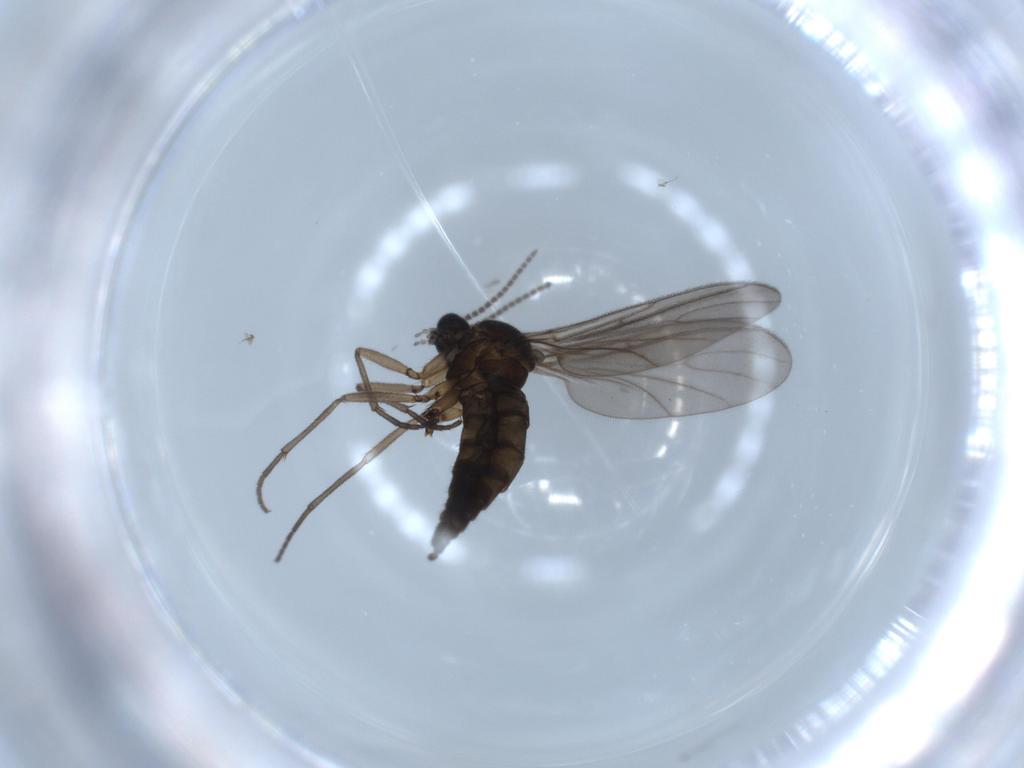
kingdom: Animalia
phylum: Arthropoda
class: Insecta
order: Diptera
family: Sciaridae
